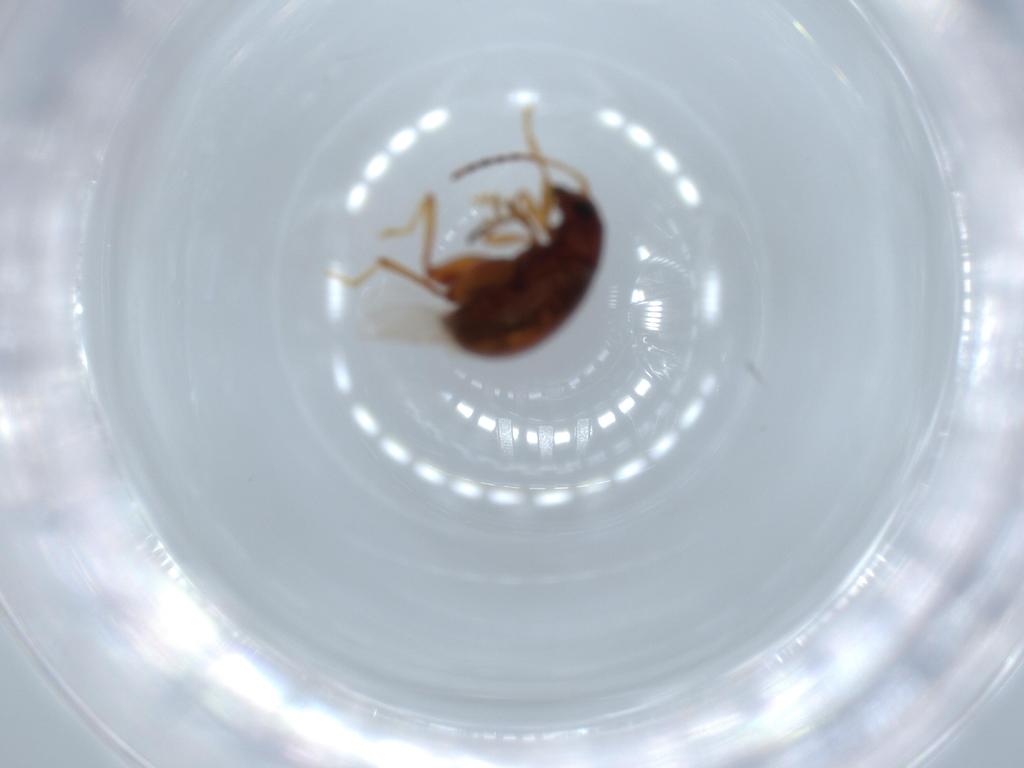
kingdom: Animalia
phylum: Arthropoda
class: Insecta
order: Coleoptera
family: Chrysomelidae
